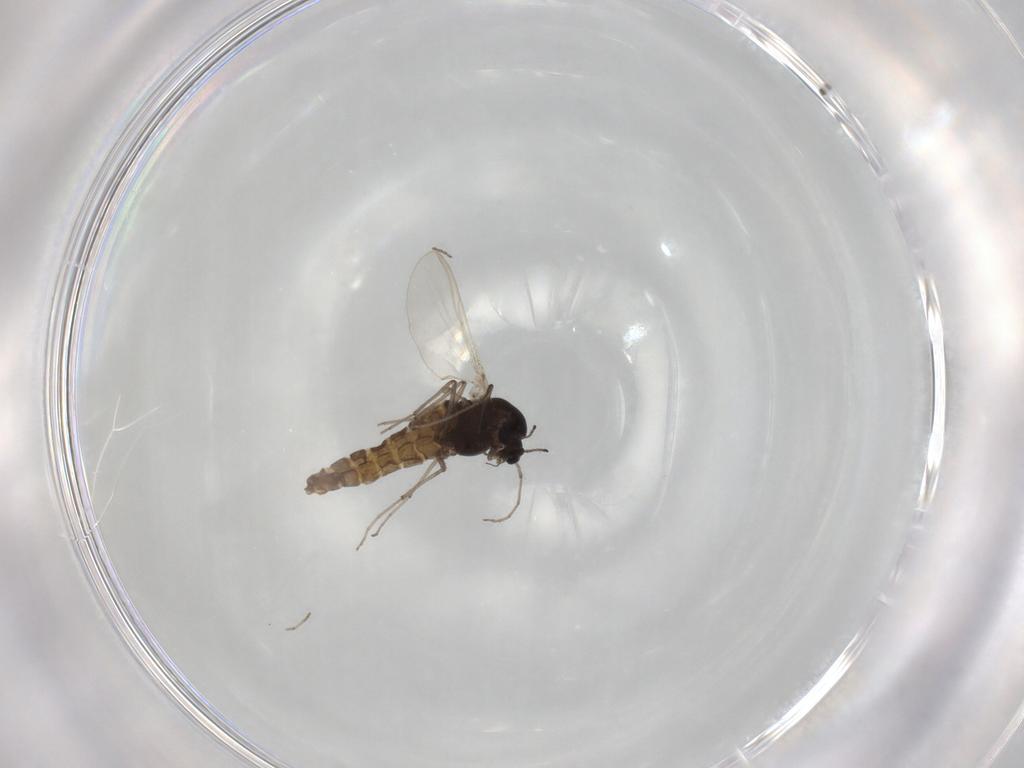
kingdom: Animalia
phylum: Arthropoda
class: Insecta
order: Diptera
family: Chironomidae
